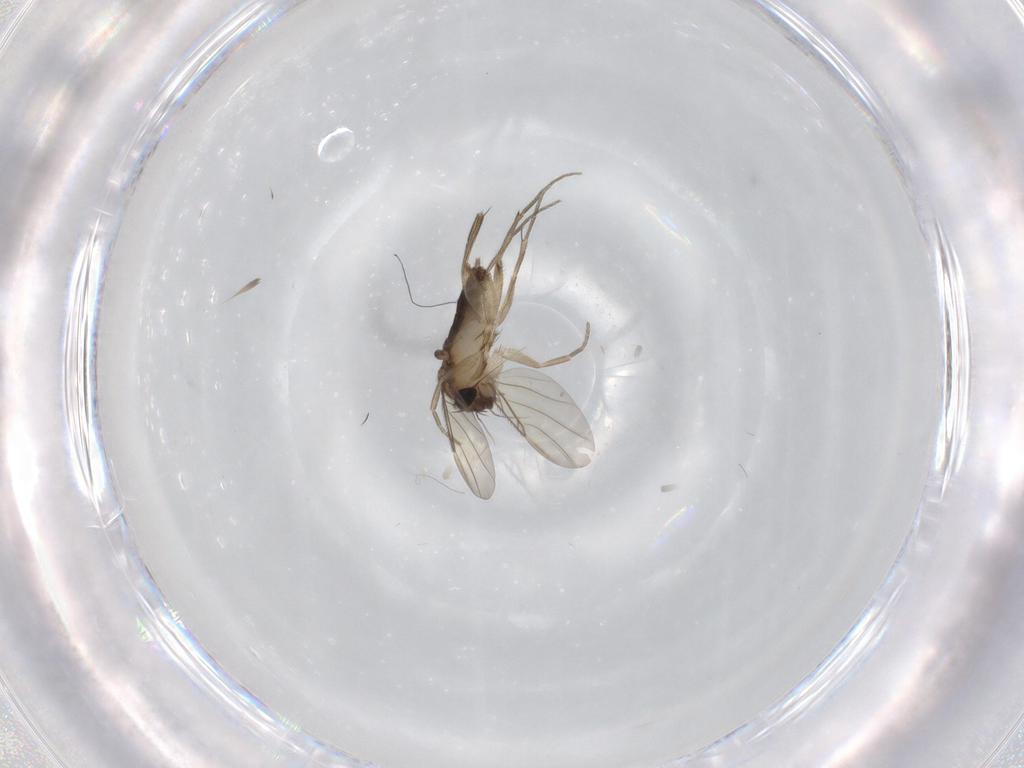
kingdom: Animalia
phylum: Arthropoda
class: Insecta
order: Diptera
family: Phoridae
